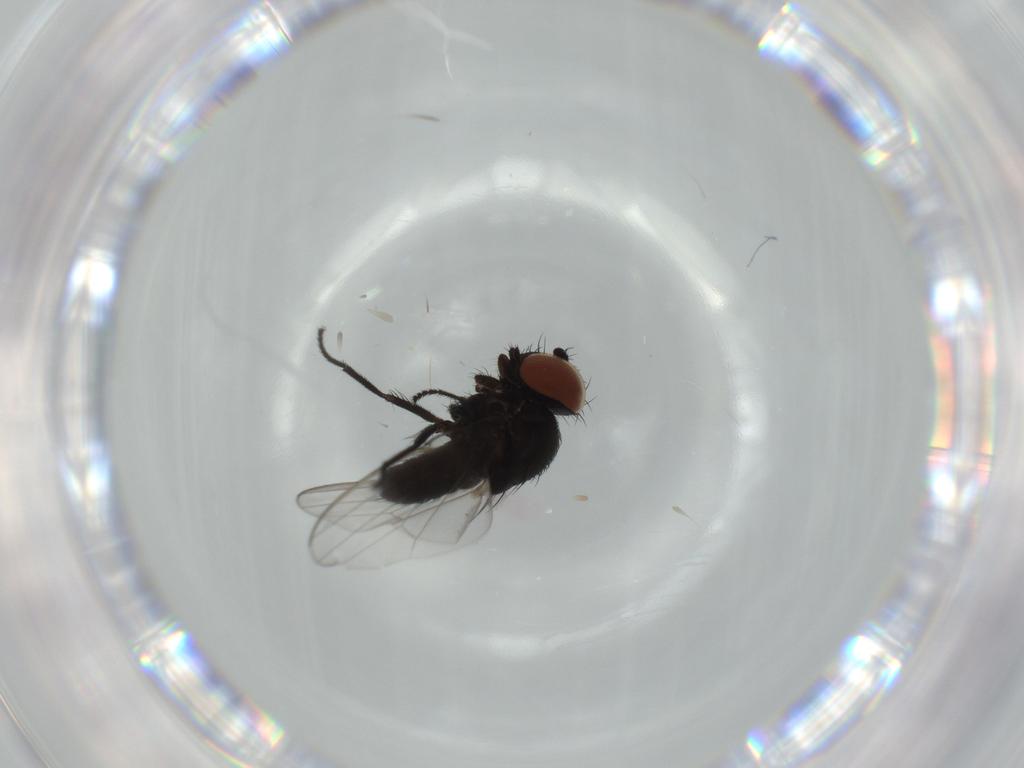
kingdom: Animalia
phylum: Arthropoda
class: Insecta
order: Diptera
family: Milichiidae
